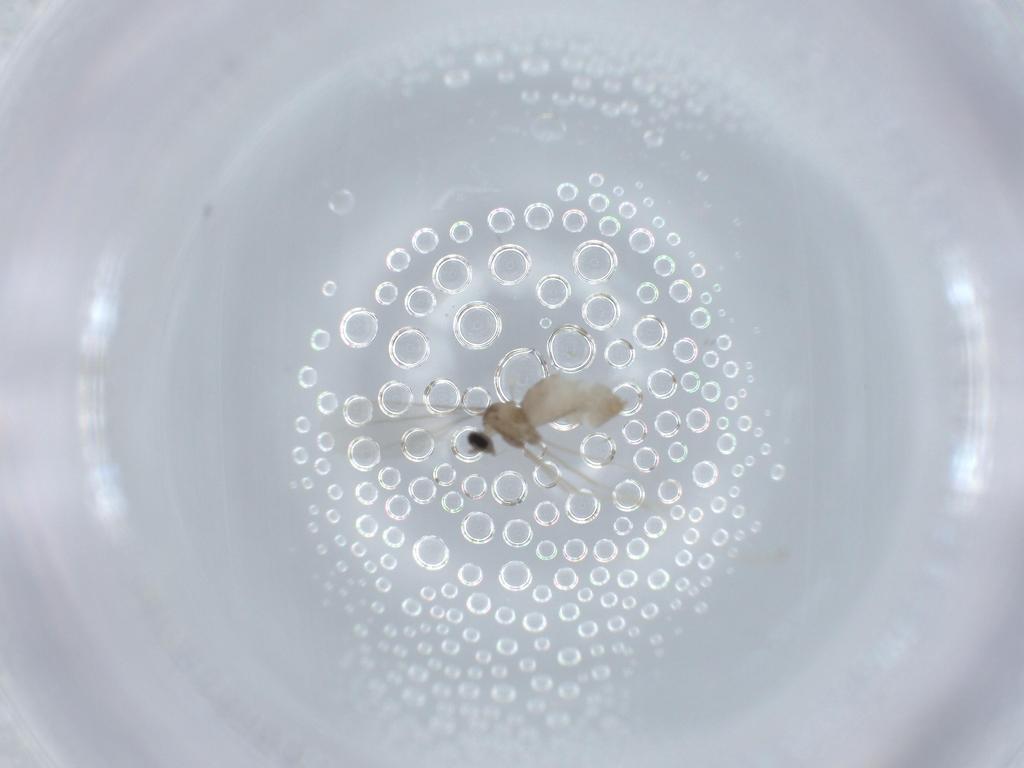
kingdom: Animalia
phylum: Arthropoda
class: Insecta
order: Diptera
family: Cecidomyiidae
